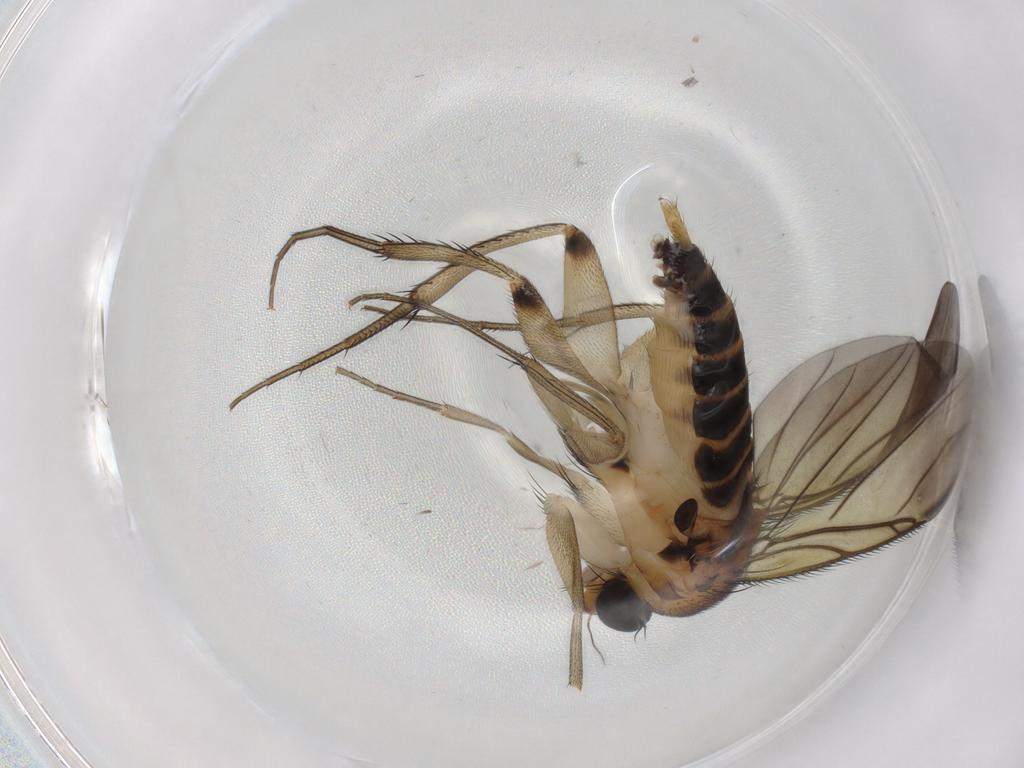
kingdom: Animalia
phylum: Arthropoda
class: Insecta
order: Diptera
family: Phoridae
